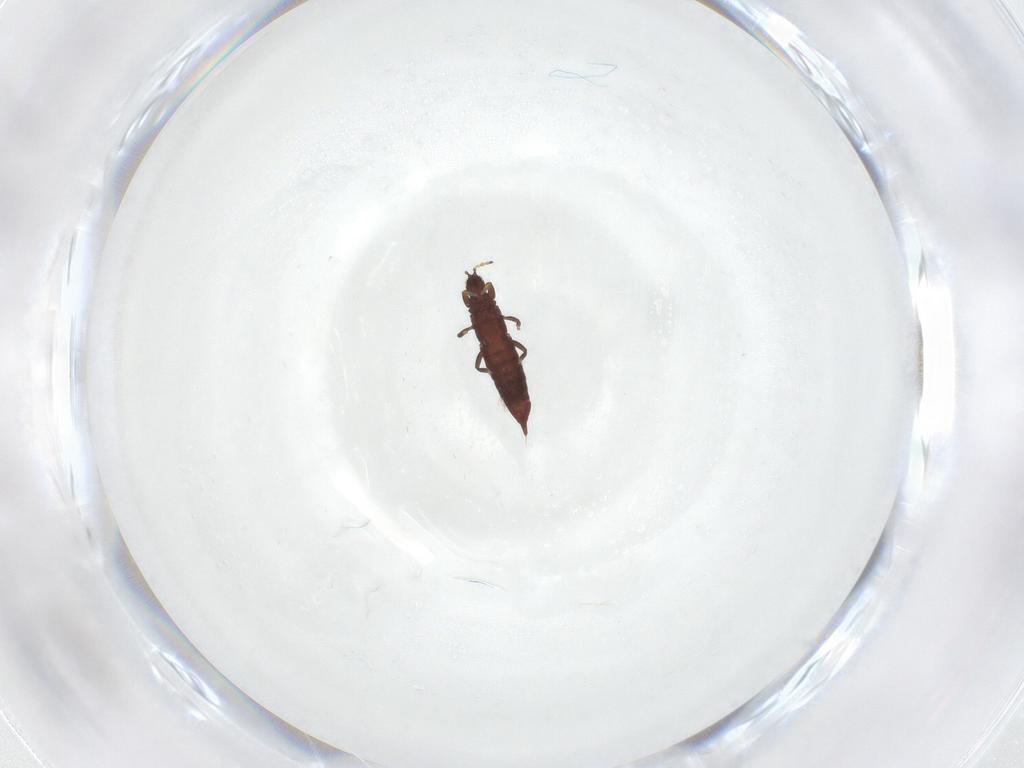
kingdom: Animalia
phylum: Arthropoda
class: Insecta
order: Thysanoptera
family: Phlaeothripidae
